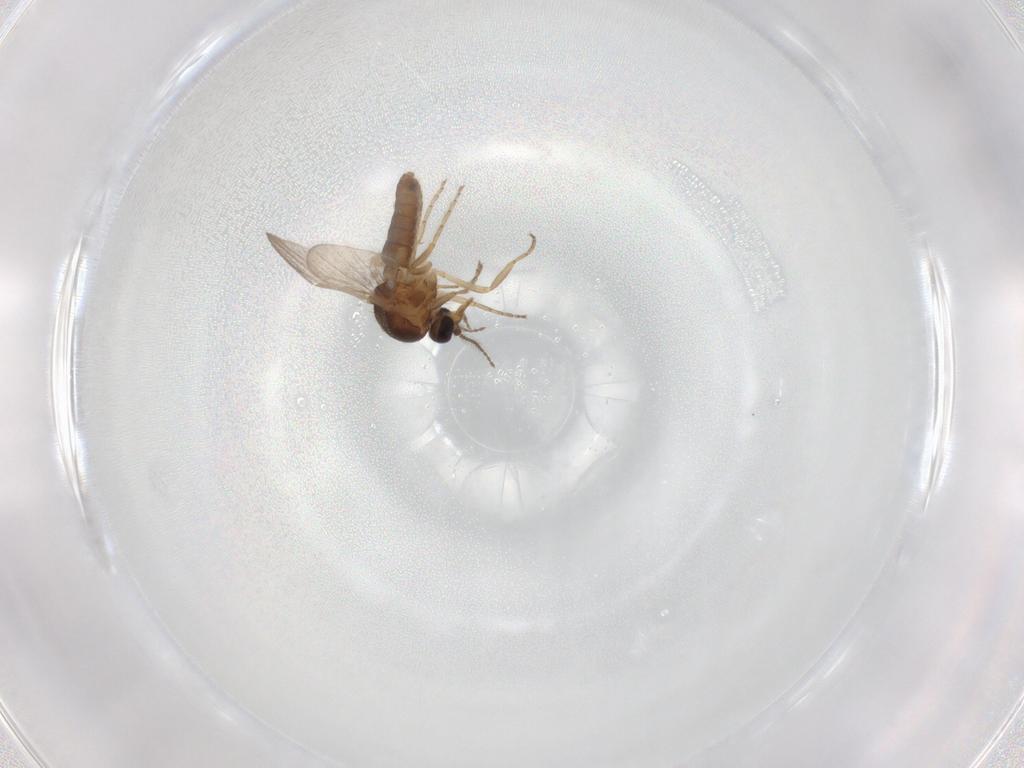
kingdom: Animalia
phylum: Arthropoda
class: Insecta
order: Diptera
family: Ceratopogonidae
